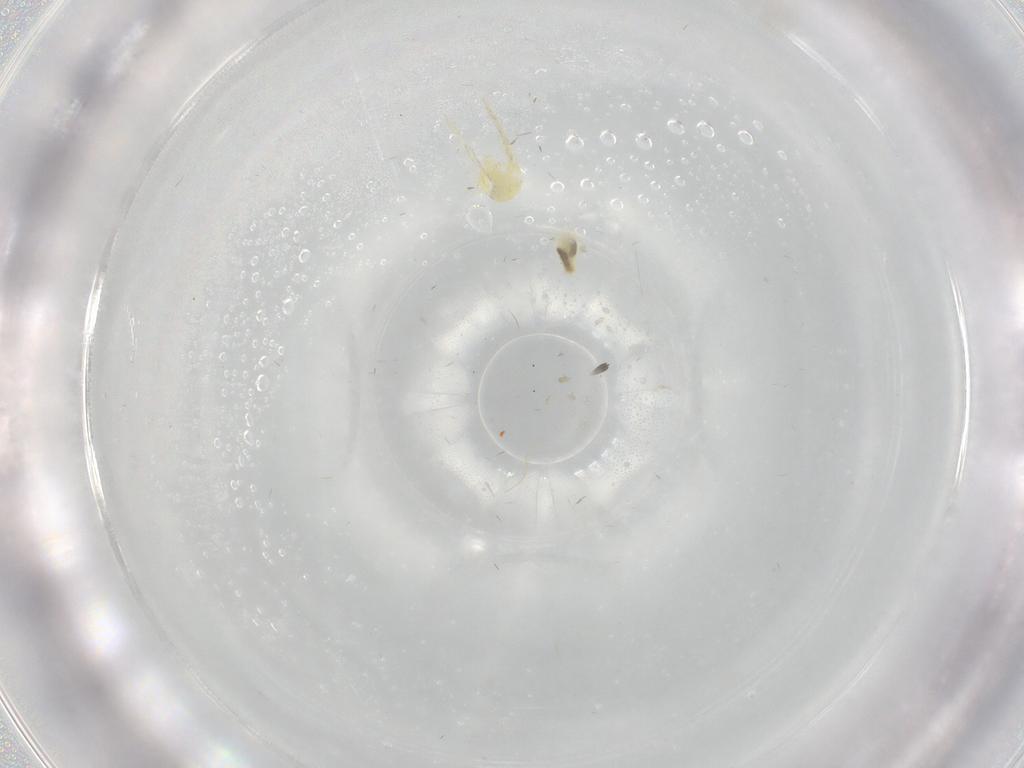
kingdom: Animalia
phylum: Arthropoda
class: Insecta
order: Hemiptera
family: Aleyrodidae
